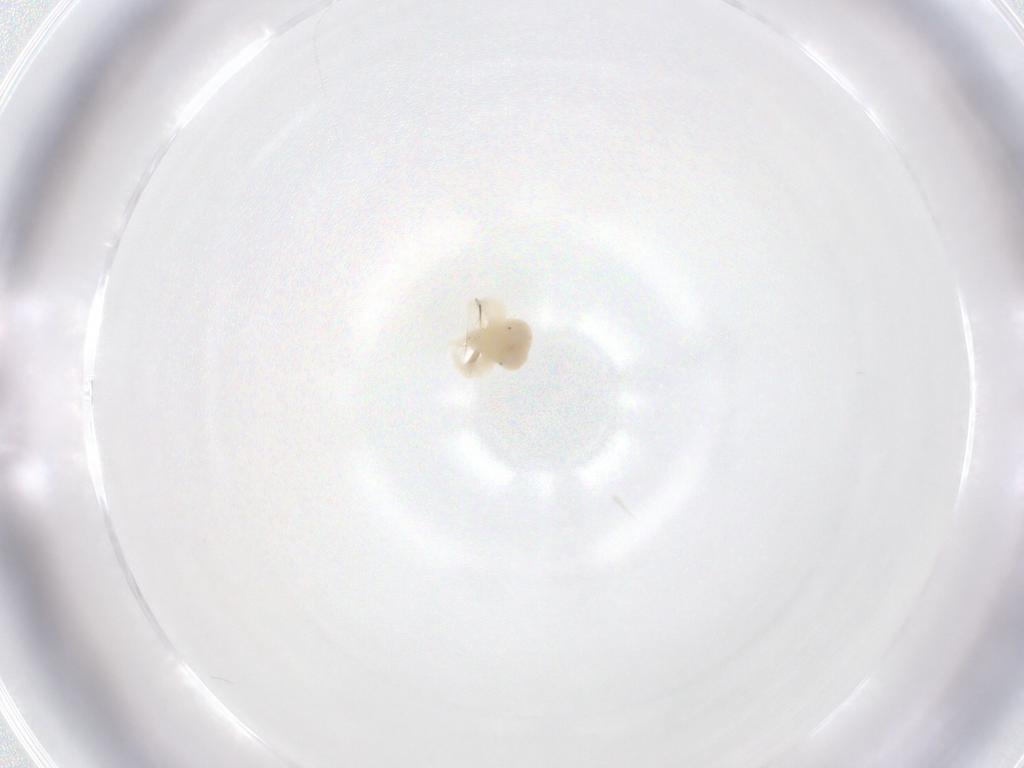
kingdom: Animalia
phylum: Arthropoda
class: Arachnida
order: Trombidiformes
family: Anystidae
